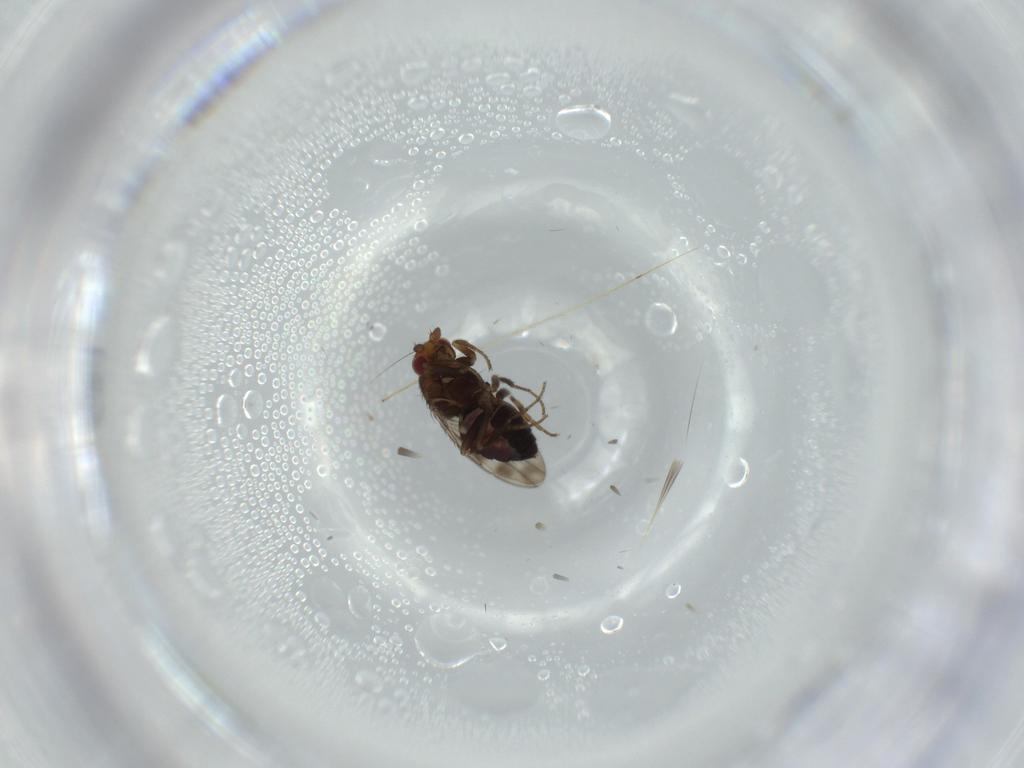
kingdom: Animalia
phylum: Arthropoda
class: Insecta
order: Diptera
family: Sphaeroceridae
